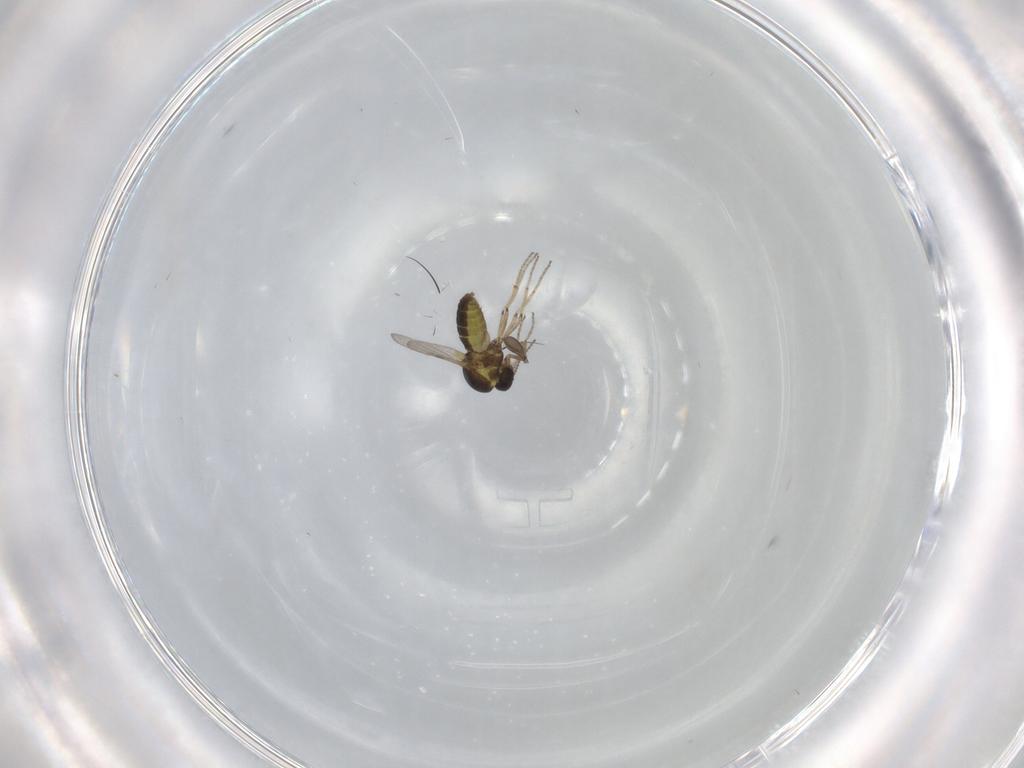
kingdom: Animalia
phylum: Arthropoda
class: Insecta
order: Diptera
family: Ceratopogonidae
